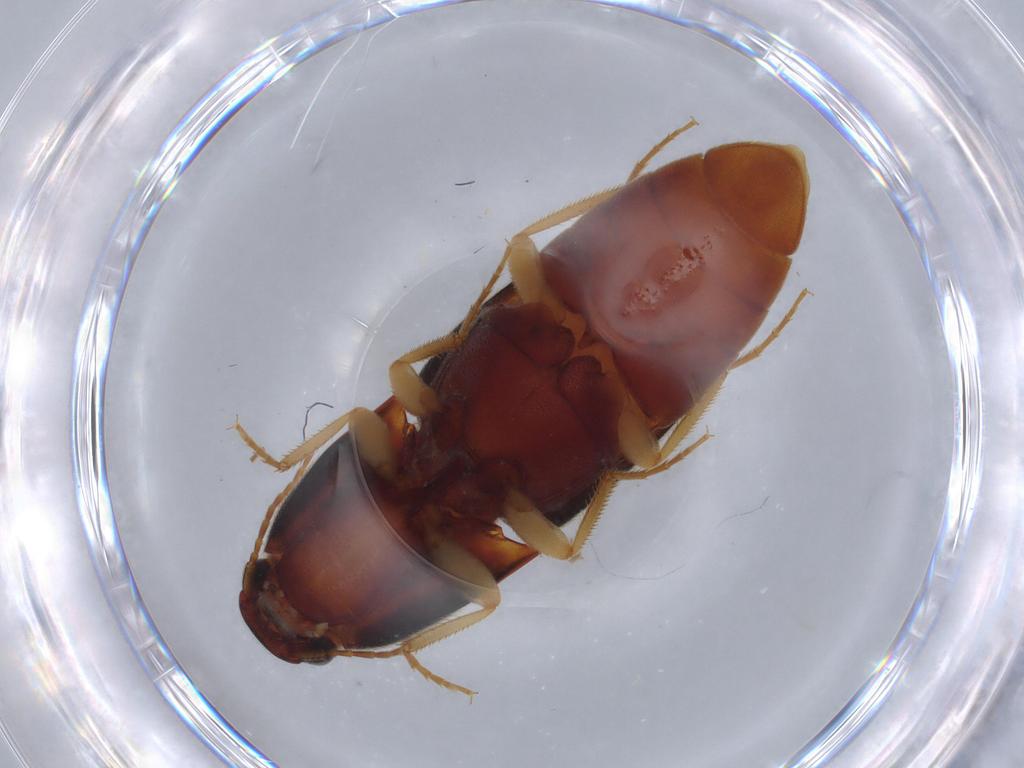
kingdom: Animalia
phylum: Arthropoda
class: Insecta
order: Coleoptera
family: Elateridae
